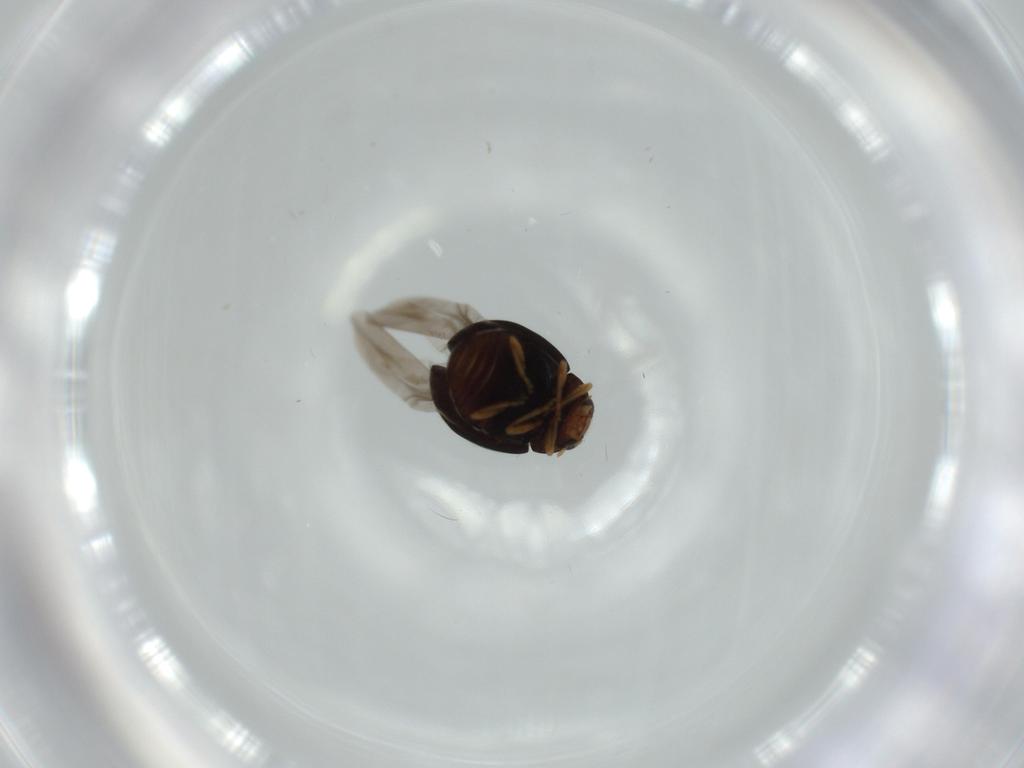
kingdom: Animalia
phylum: Arthropoda
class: Insecta
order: Coleoptera
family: Coccinellidae
